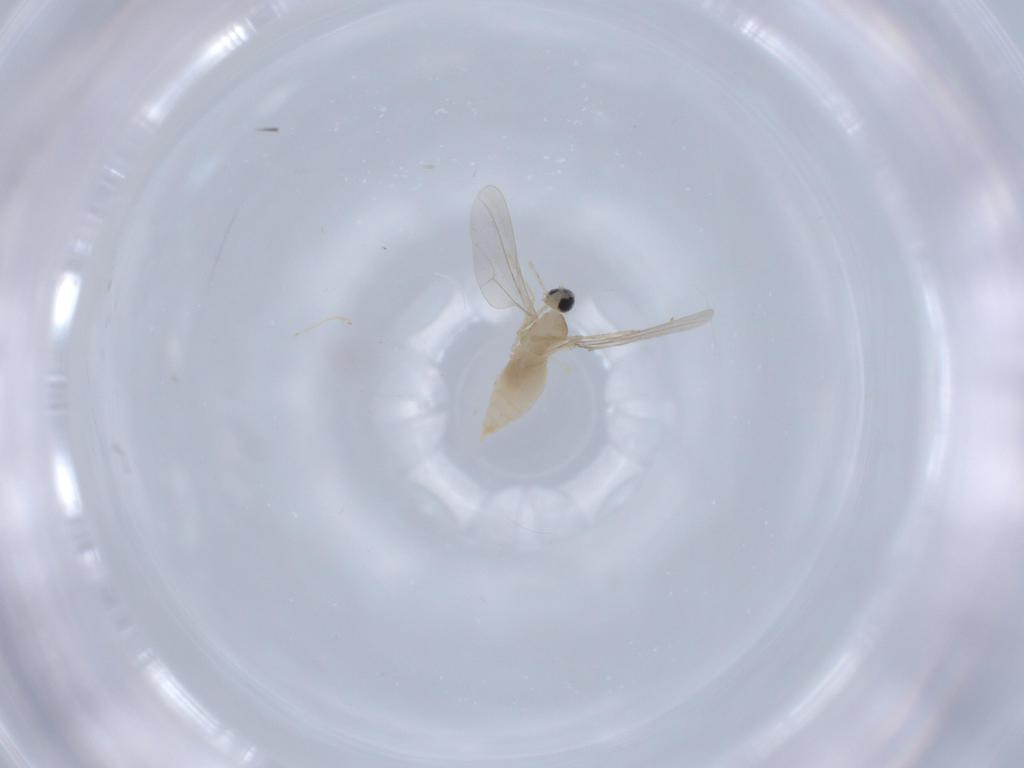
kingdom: Animalia
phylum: Arthropoda
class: Insecta
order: Diptera
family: Cecidomyiidae
